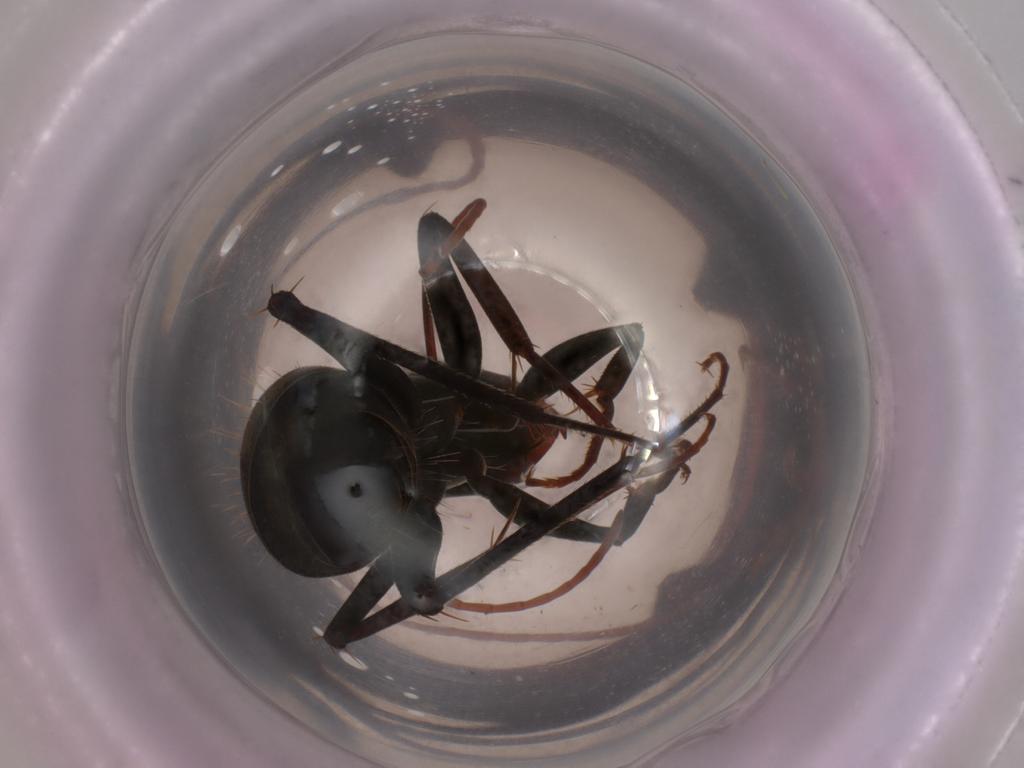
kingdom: Animalia
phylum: Arthropoda
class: Insecta
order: Hymenoptera
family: Formicidae
